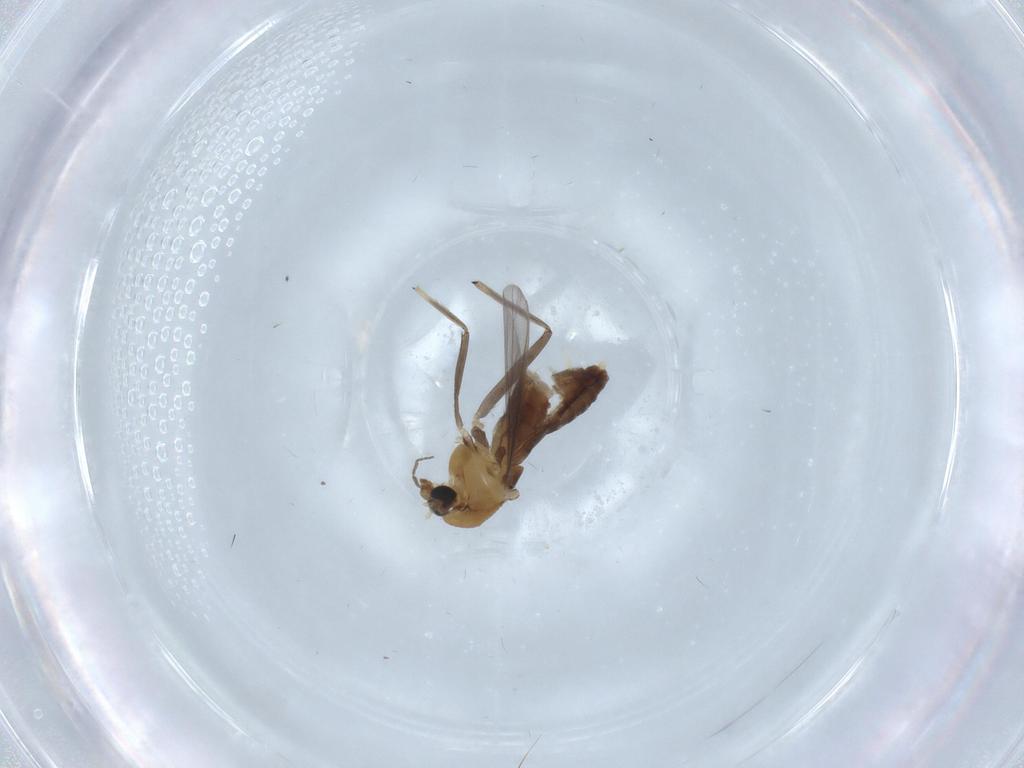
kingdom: Animalia
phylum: Arthropoda
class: Insecta
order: Diptera
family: Chironomidae
